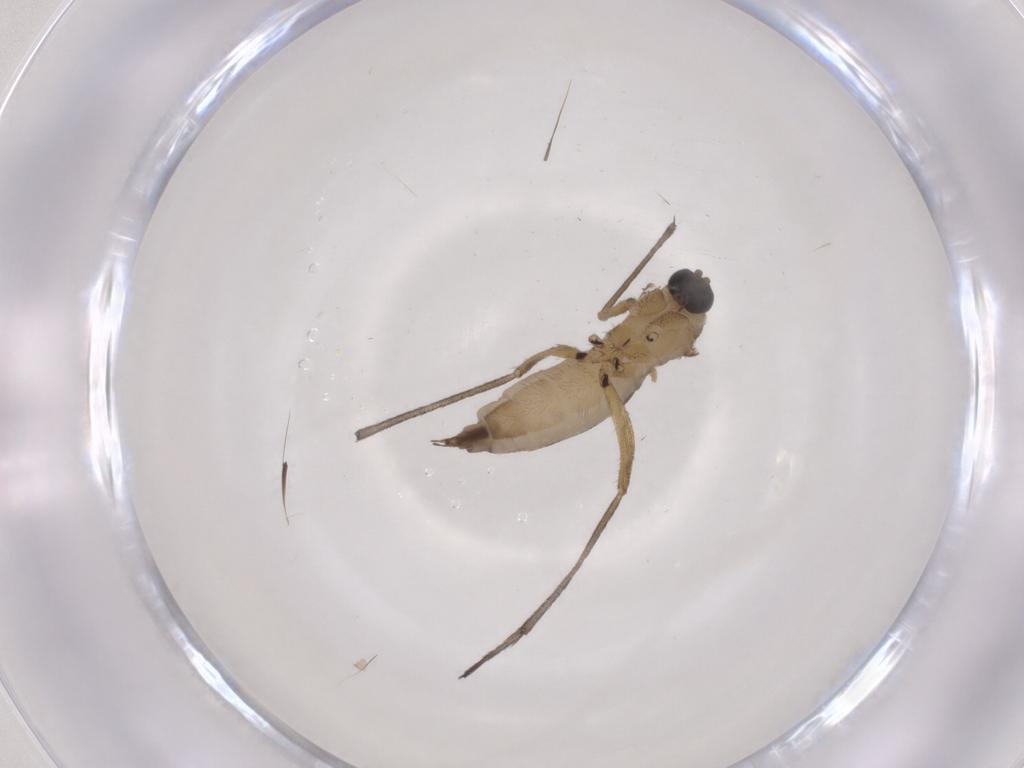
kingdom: Animalia
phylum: Arthropoda
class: Insecta
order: Diptera
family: Sciaridae
